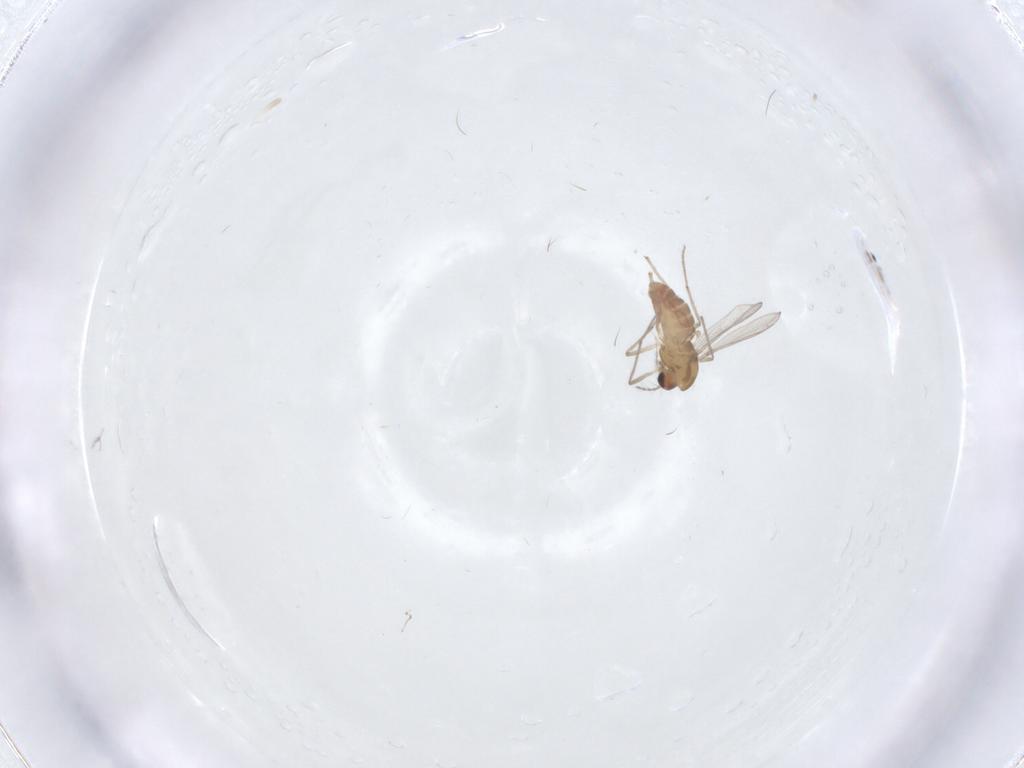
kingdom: Animalia
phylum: Arthropoda
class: Insecta
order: Diptera
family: Chironomidae
